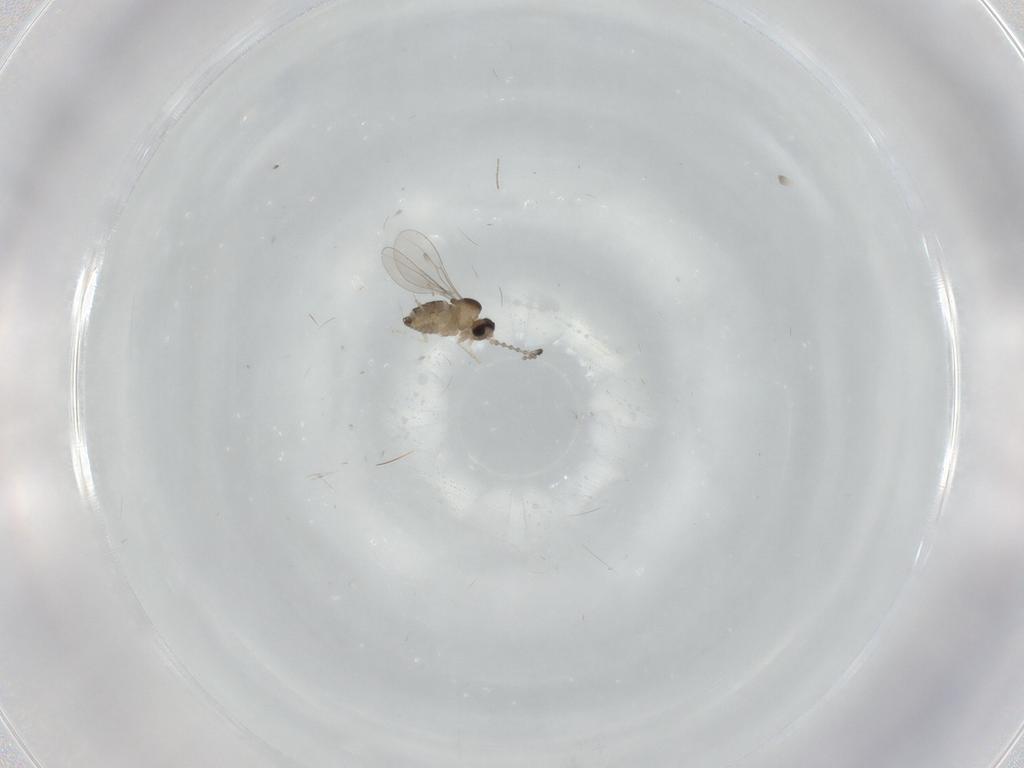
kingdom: Animalia
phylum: Arthropoda
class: Insecta
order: Diptera
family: Cecidomyiidae
